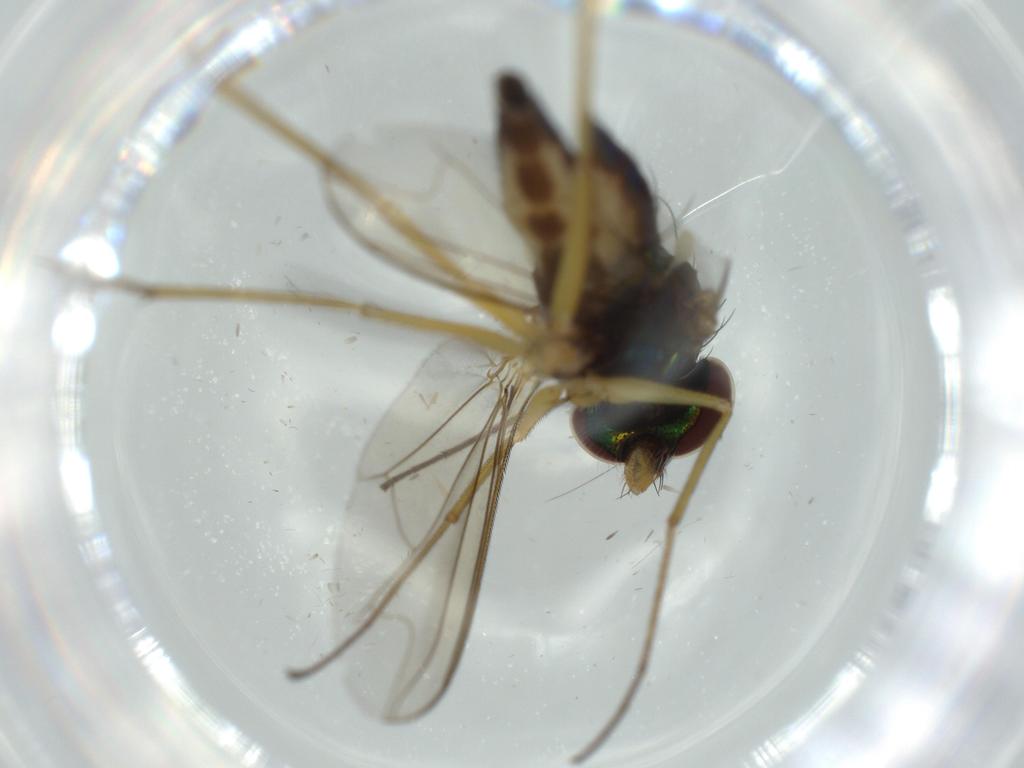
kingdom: Animalia
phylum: Arthropoda
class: Insecta
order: Diptera
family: Dolichopodidae
